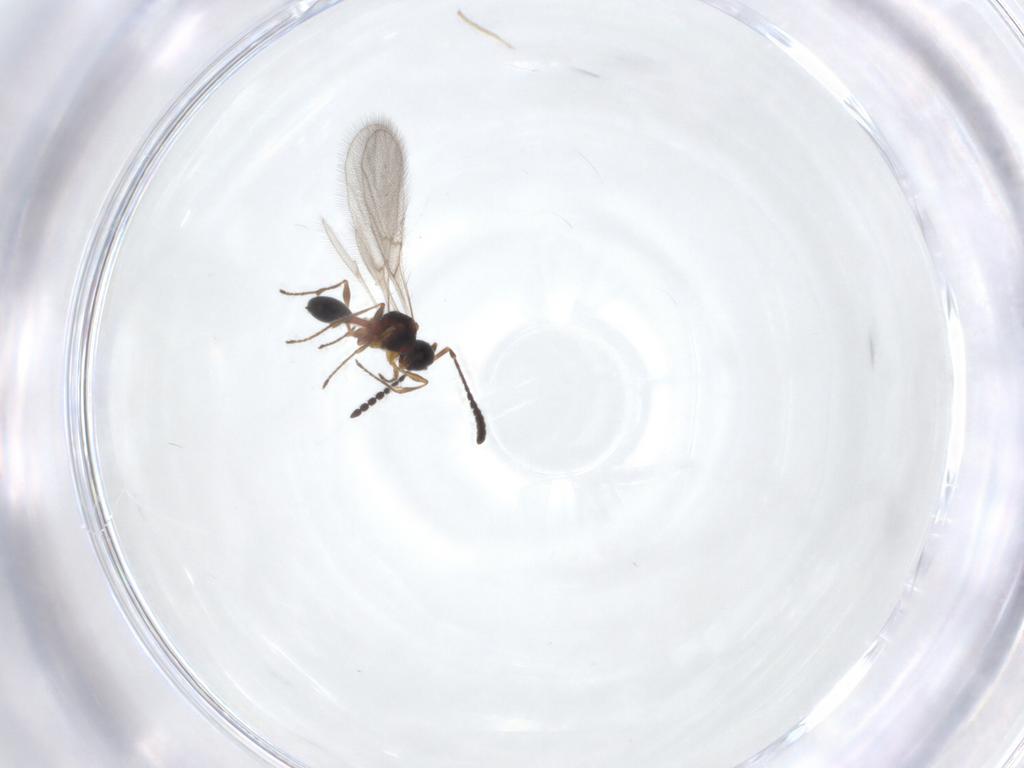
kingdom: Animalia
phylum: Arthropoda
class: Insecta
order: Hymenoptera
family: Diapriidae
